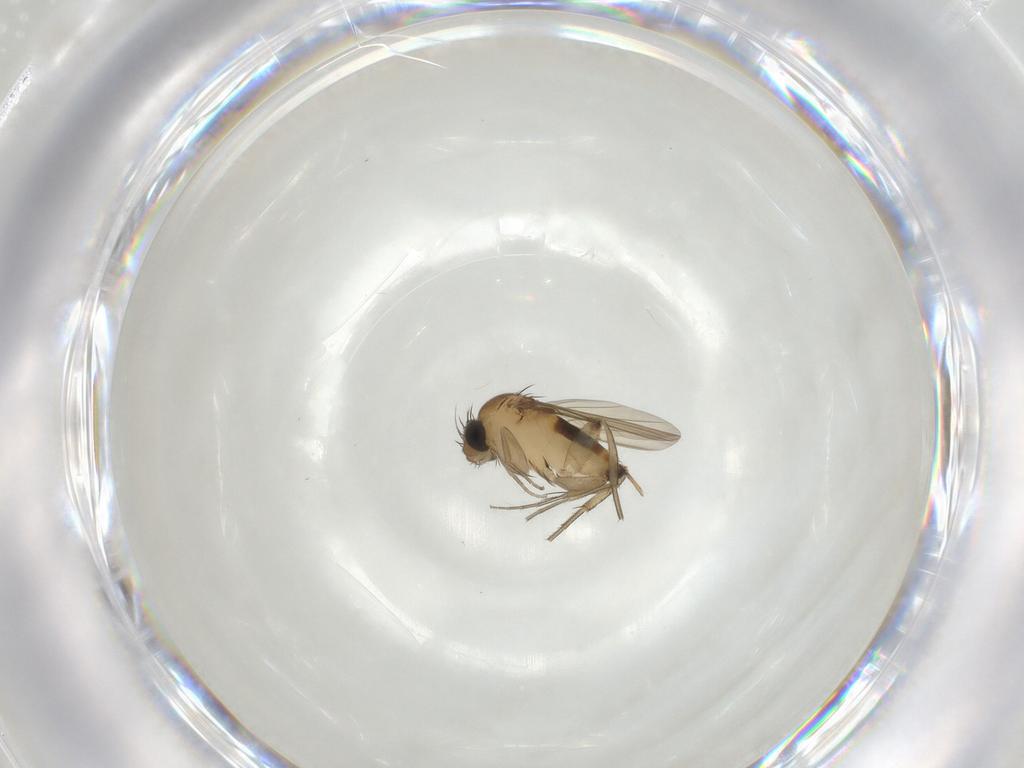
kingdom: Animalia
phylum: Arthropoda
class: Insecta
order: Diptera
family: Phoridae
